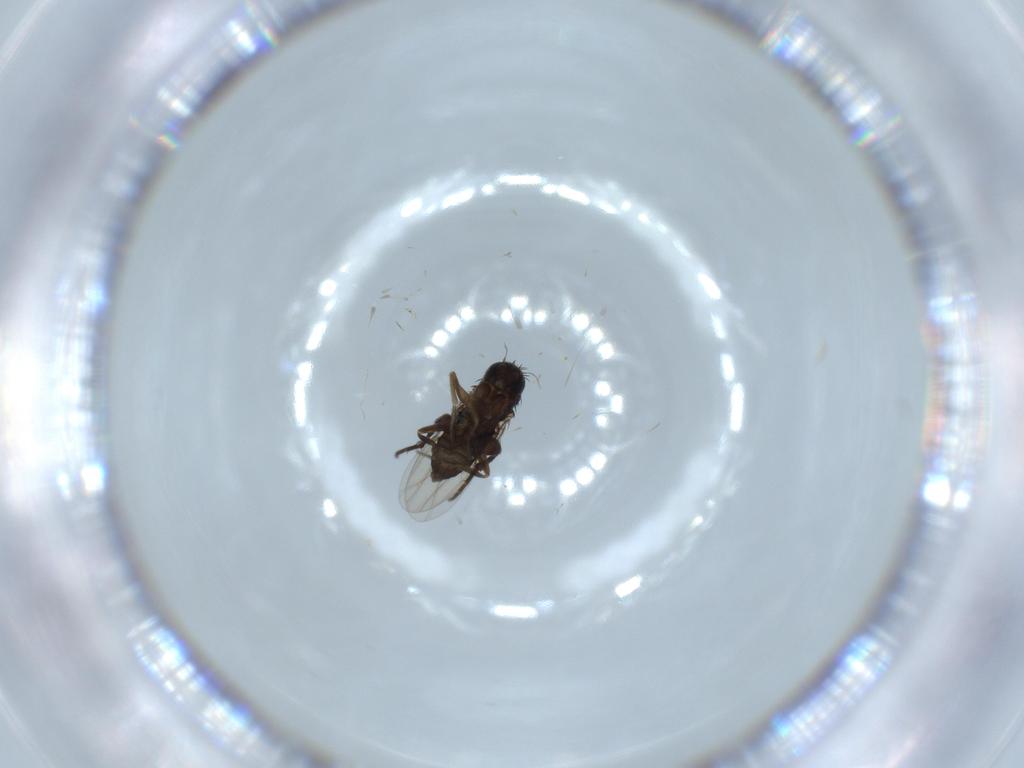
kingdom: Animalia
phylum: Arthropoda
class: Insecta
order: Diptera
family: Phoridae
